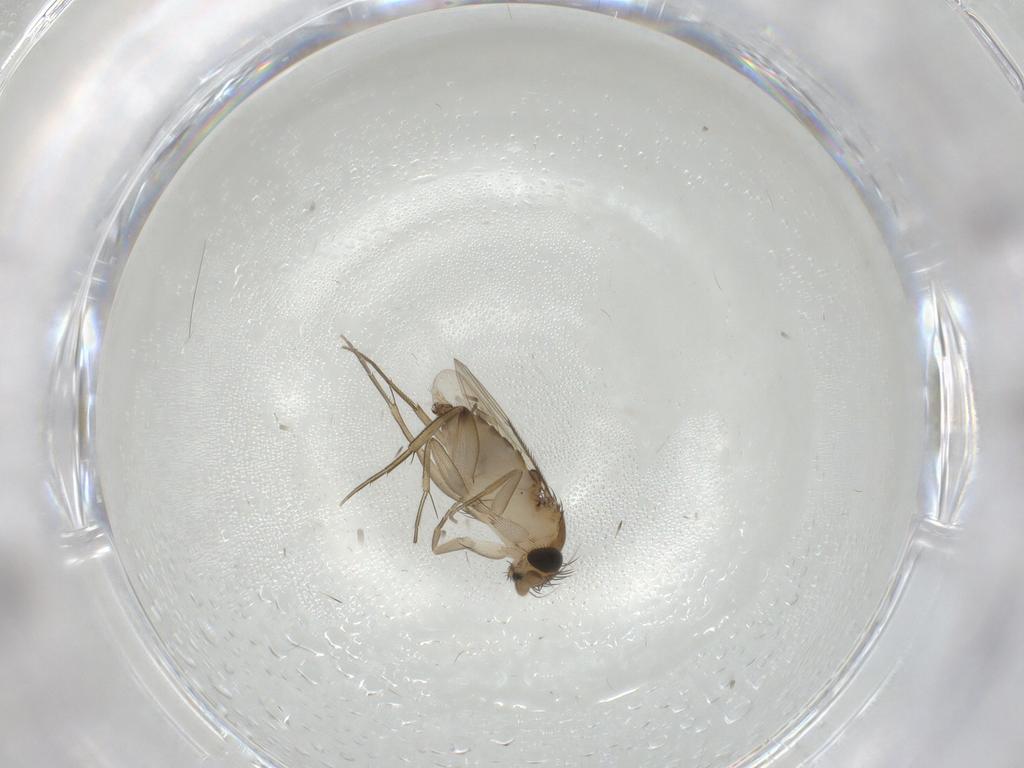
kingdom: Animalia
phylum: Arthropoda
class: Insecta
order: Diptera
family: Phoridae
